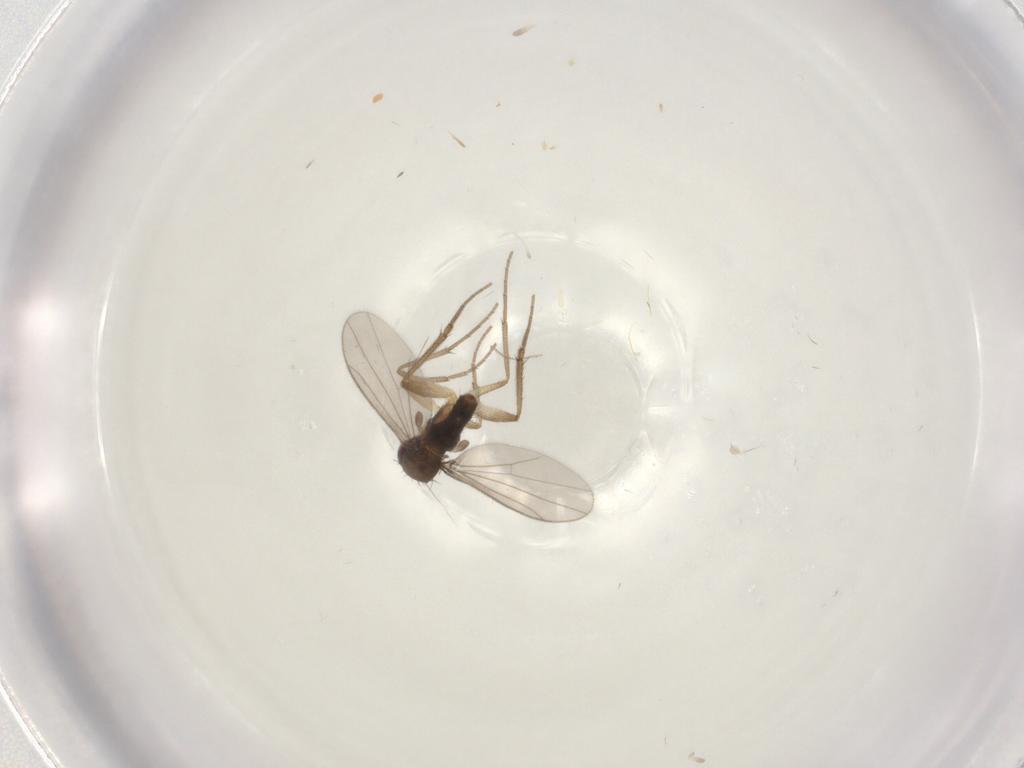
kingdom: Animalia
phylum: Arthropoda
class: Insecta
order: Diptera
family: Dolichopodidae
